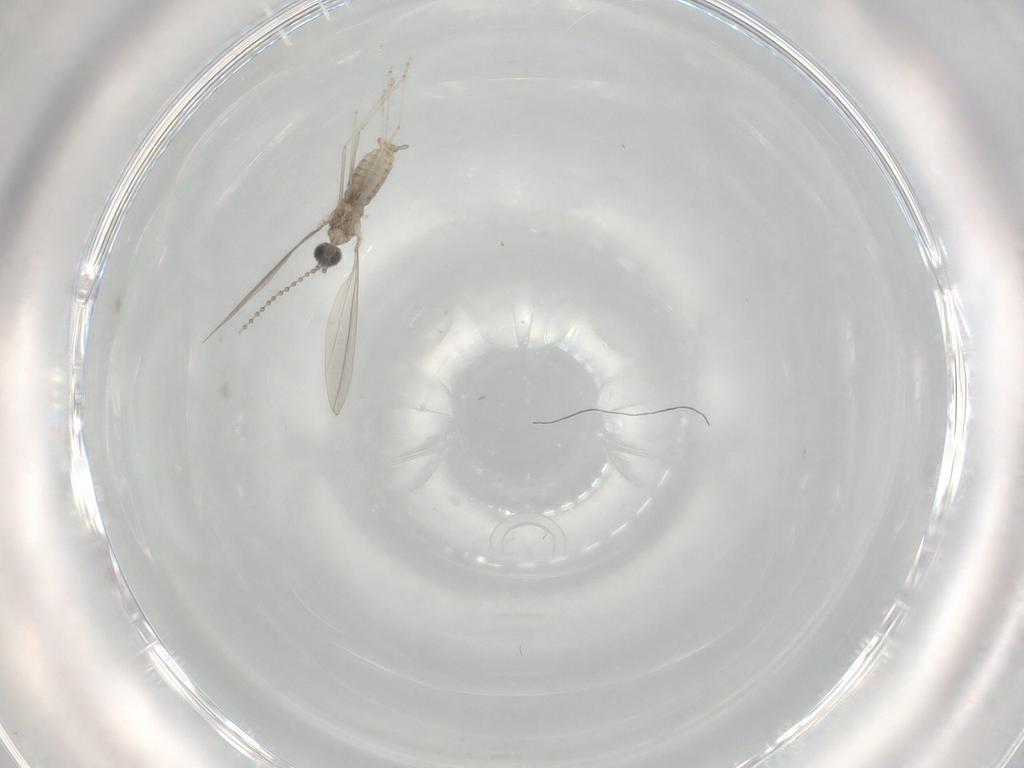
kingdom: Animalia
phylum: Arthropoda
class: Insecta
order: Diptera
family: Cecidomyiidae
